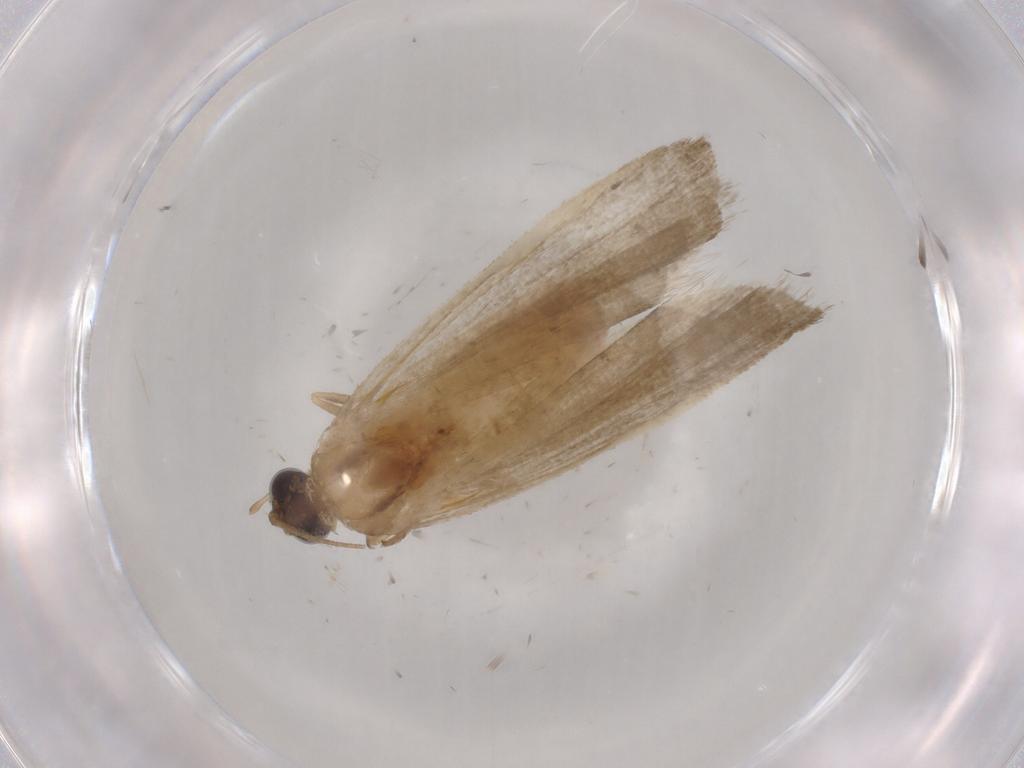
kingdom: Animalia
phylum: Arthropoda
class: Insecta
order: Lepidoptera
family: Noctuidae
